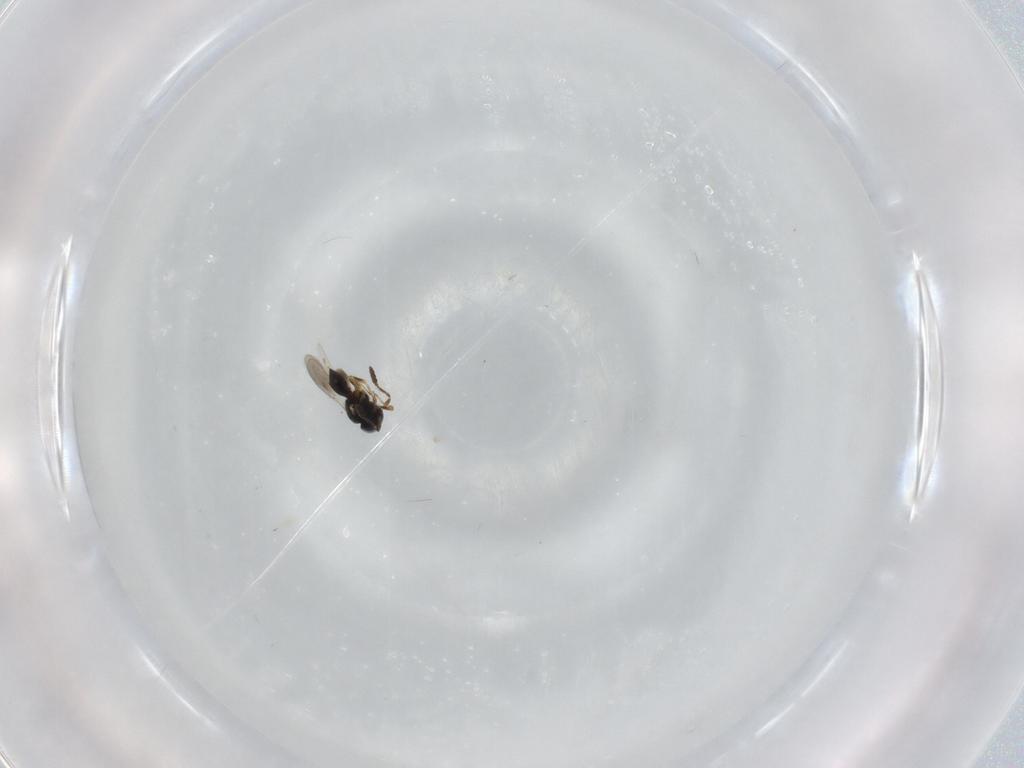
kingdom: Animalia
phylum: Arthropoda
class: Insecta
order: Hymenoptera
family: Scelionidae
